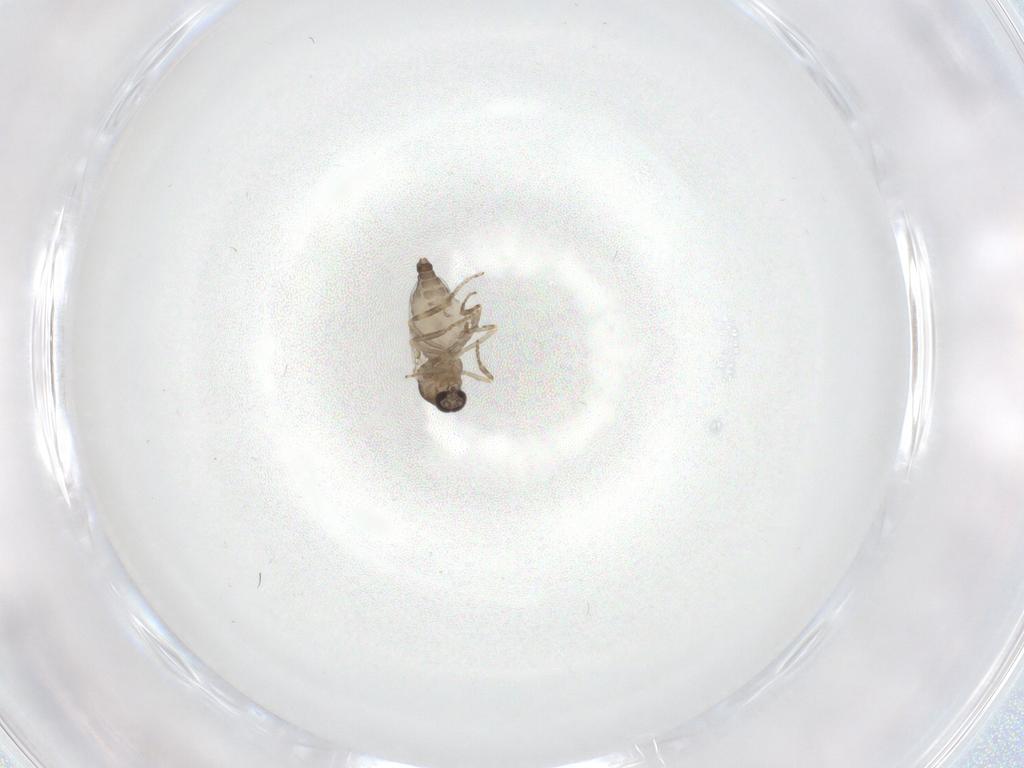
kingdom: Animalia
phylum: Arthropoda
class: Insecta
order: Diptera
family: Ceratopogonidae
